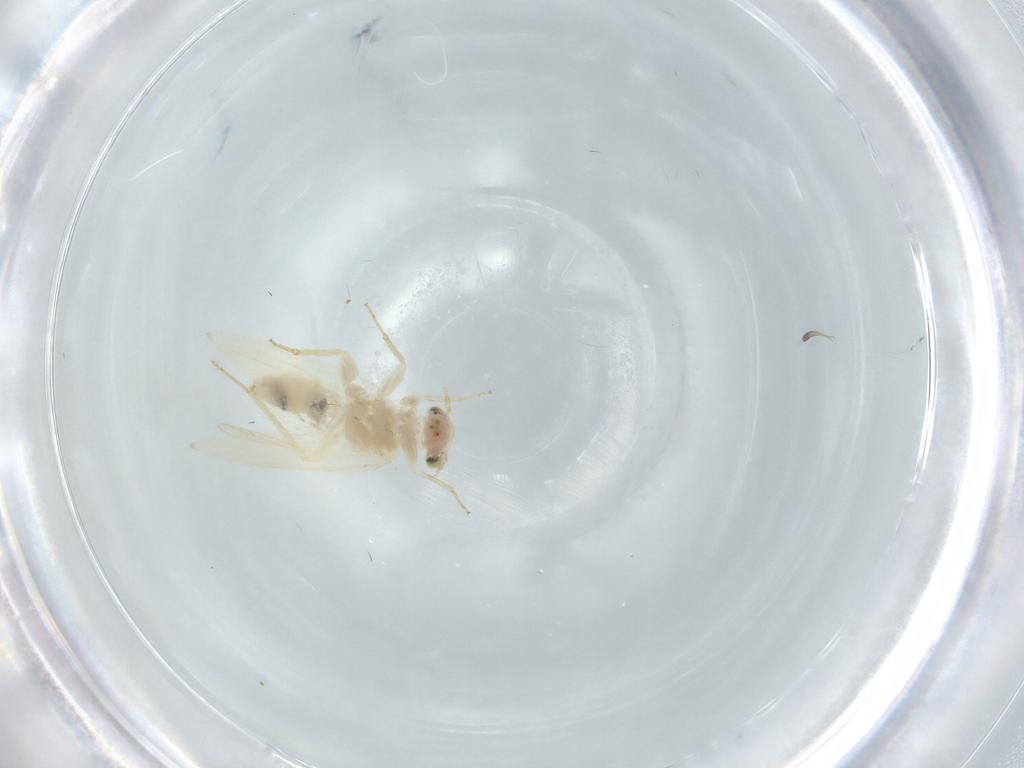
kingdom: Animalia
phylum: Arthropoda
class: Insecta
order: Psocodea
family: Lepidopsocidae
